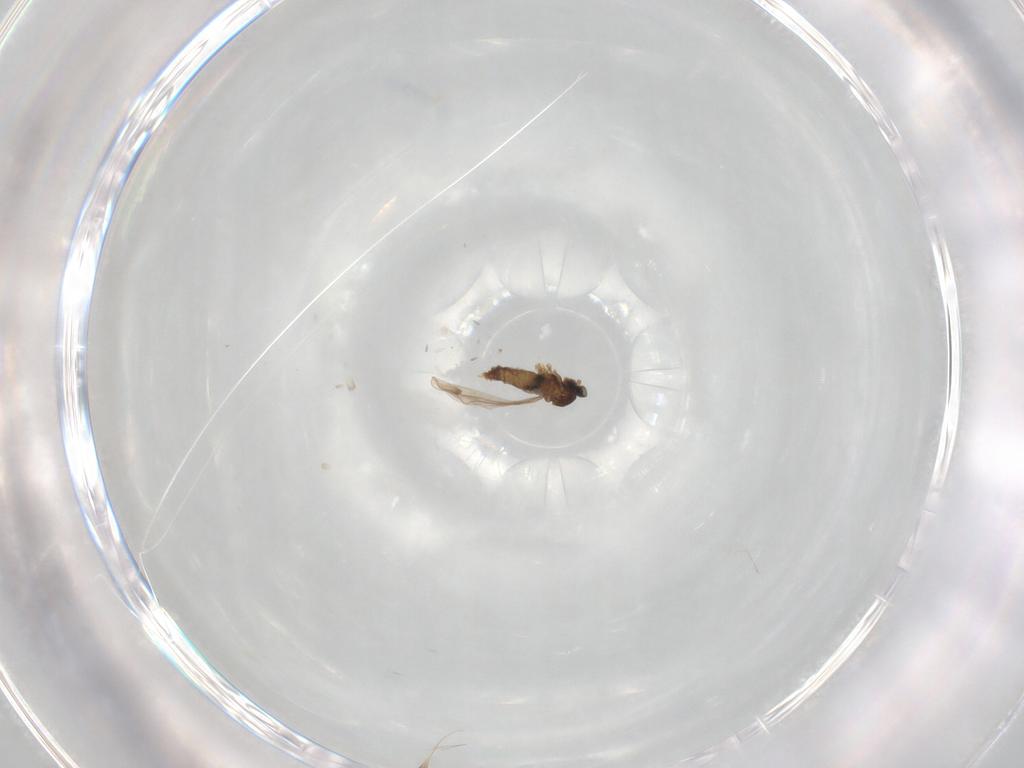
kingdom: Animalia
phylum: Arthropoda
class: Insecta
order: Diptera
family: Cecidomyiidae
